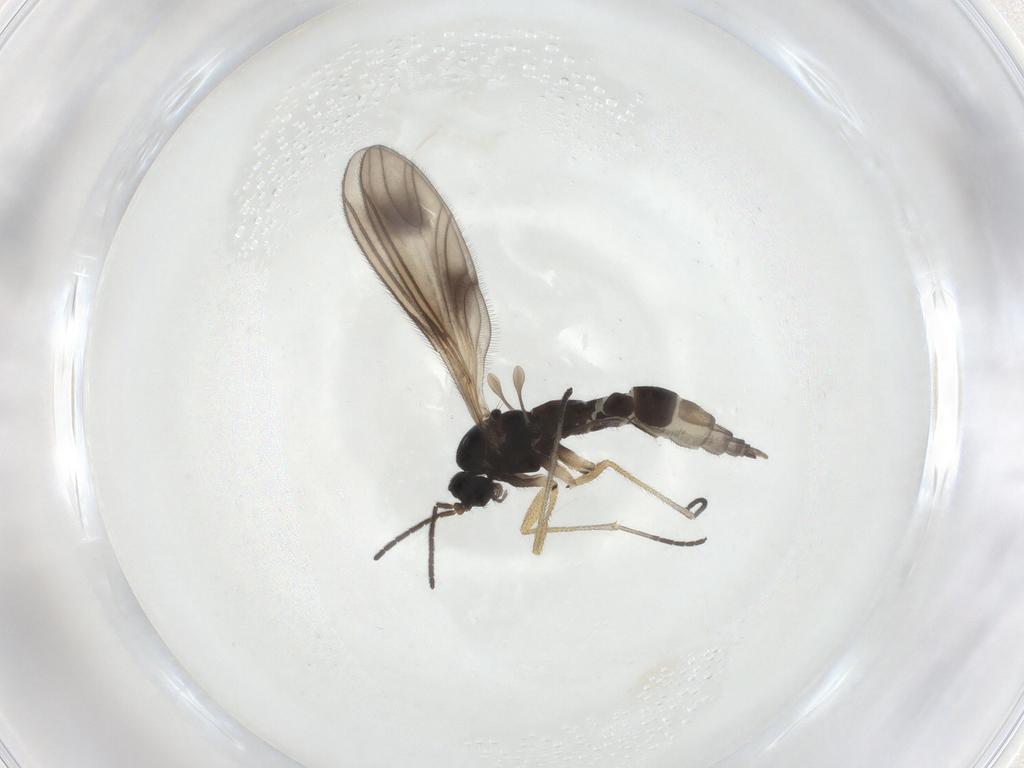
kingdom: Animalia
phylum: Arthropoda
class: Insecta
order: Diptera
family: Sciaridae
